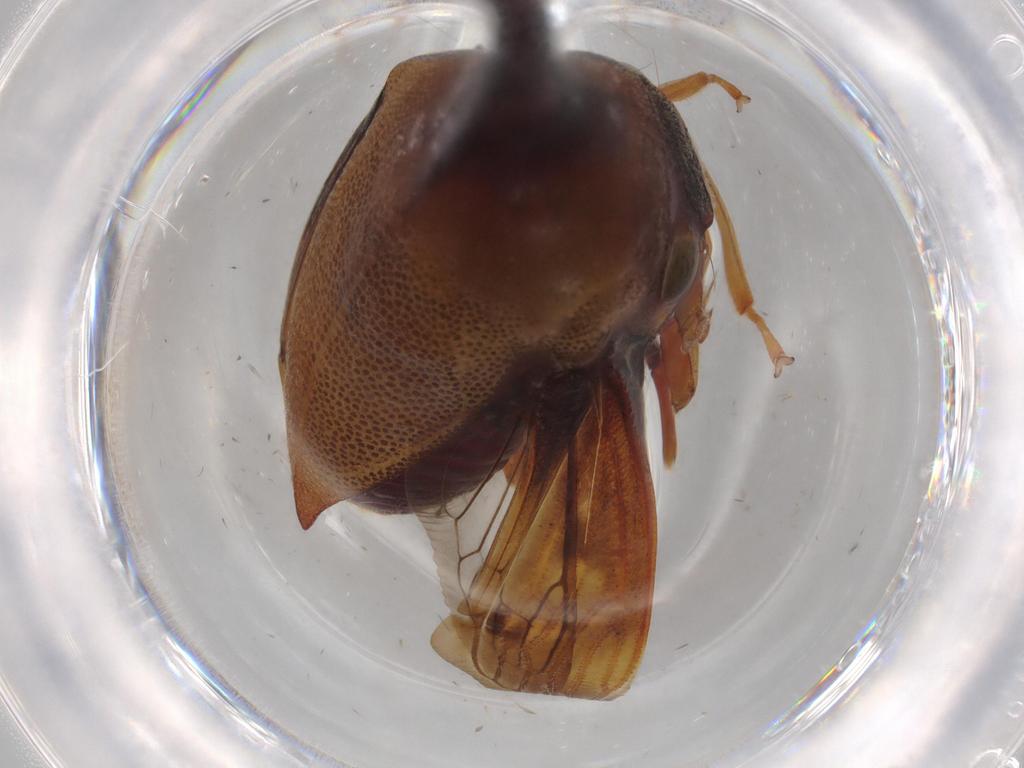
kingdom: Animalia
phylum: Arthropoda
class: Insecta
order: Hemiptera
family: Membracidae
